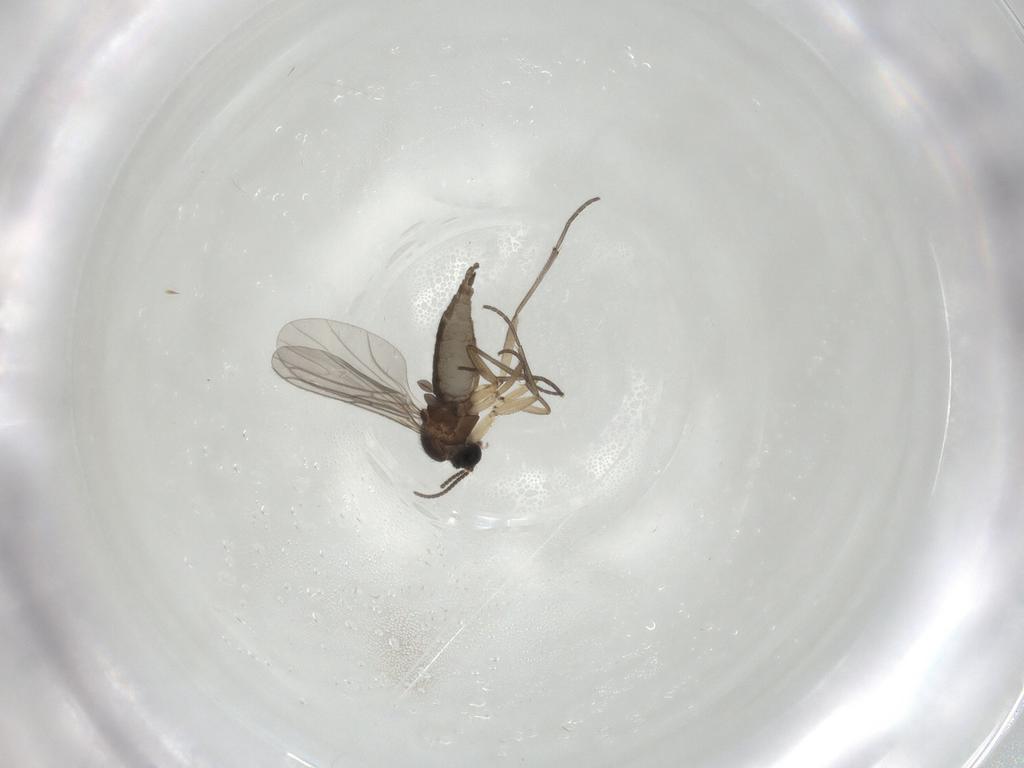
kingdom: Animalia
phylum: Arthropoda
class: Insecta
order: Diptera
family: Sciaridae
